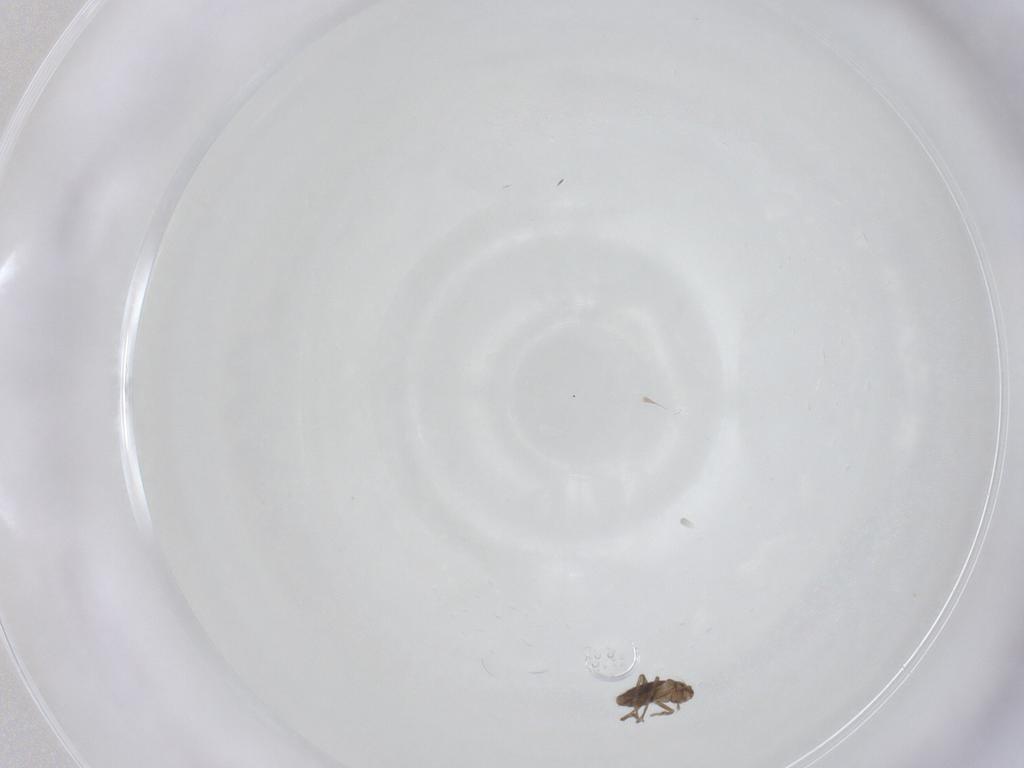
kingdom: Animalia
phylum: Arthropoda
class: Insecta
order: Diptera
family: Phoridae
